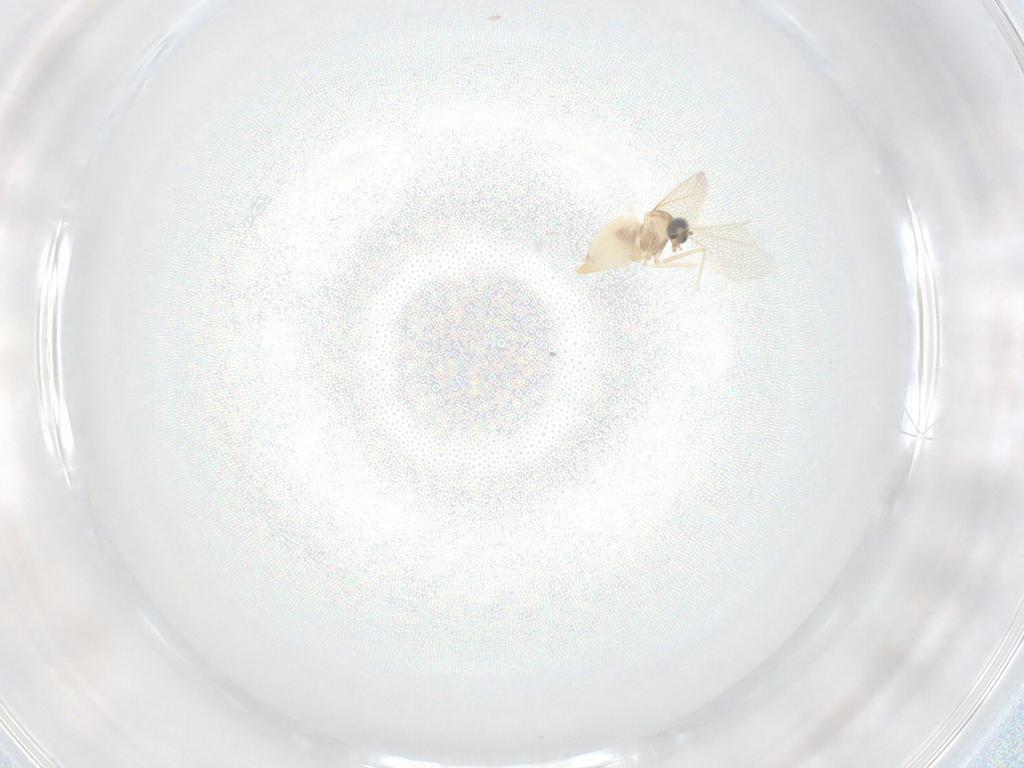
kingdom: Animalia
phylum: Arthropoda
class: Insecta
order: Diptera
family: Cecidomyiidae
